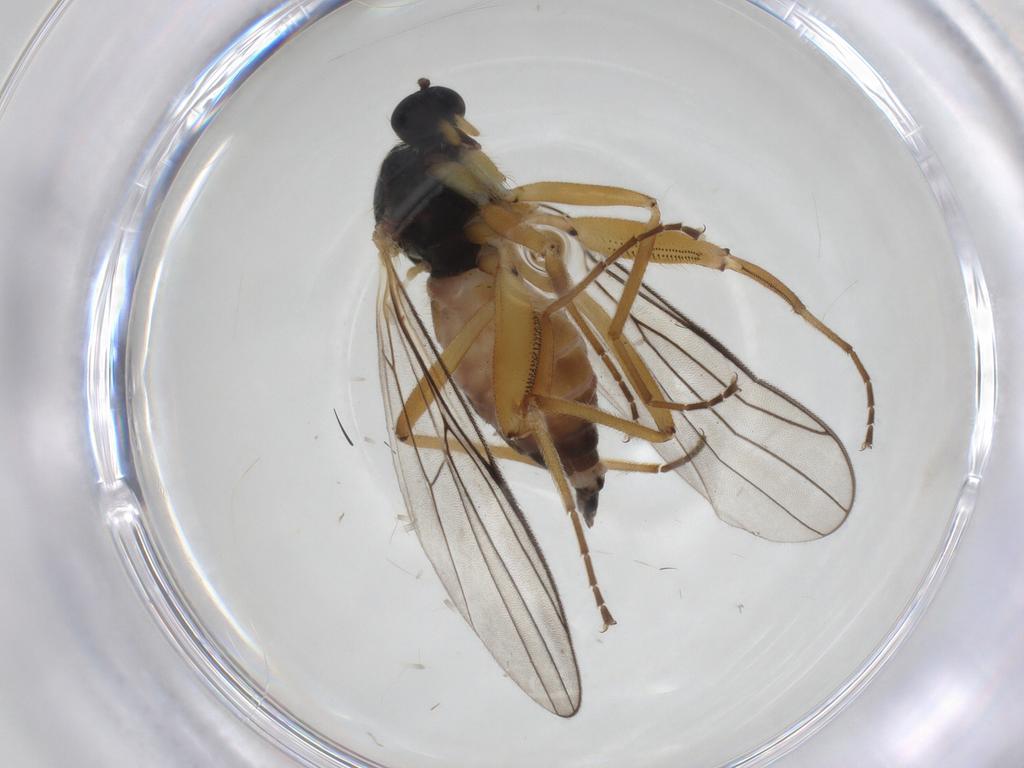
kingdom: Animalia
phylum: Arthropoda
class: Insecta
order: Diptera
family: Hybotidae
